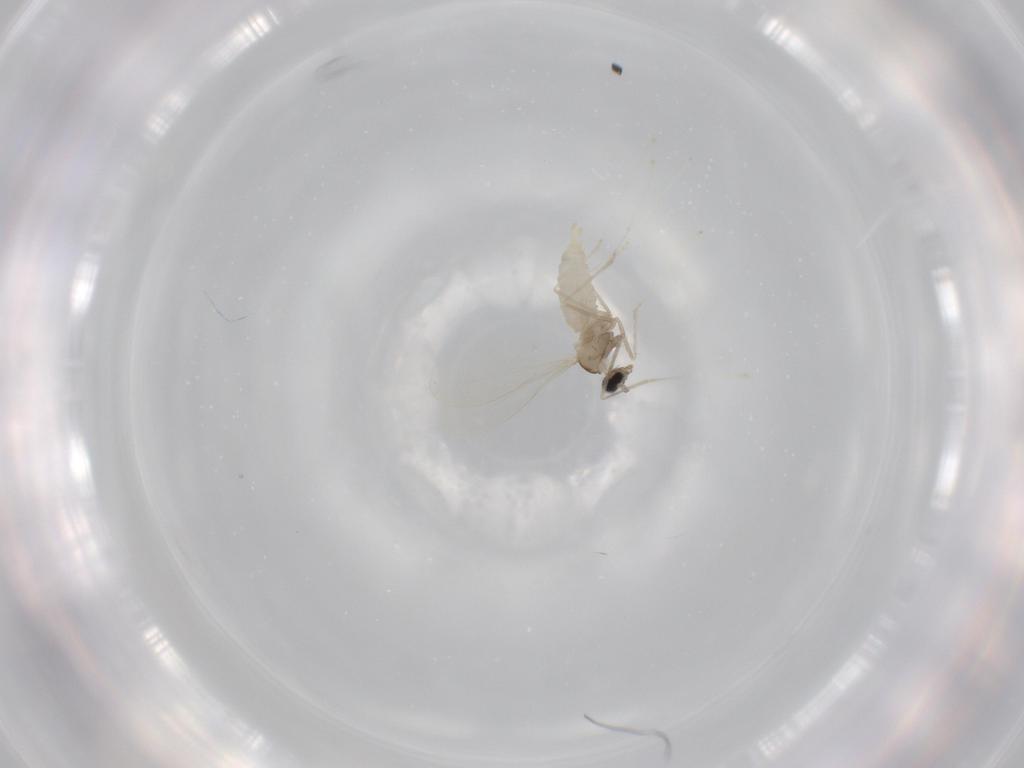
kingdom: Animalia
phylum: Arthropoda
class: Insecta
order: Diptera
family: Cecidomyiidae
